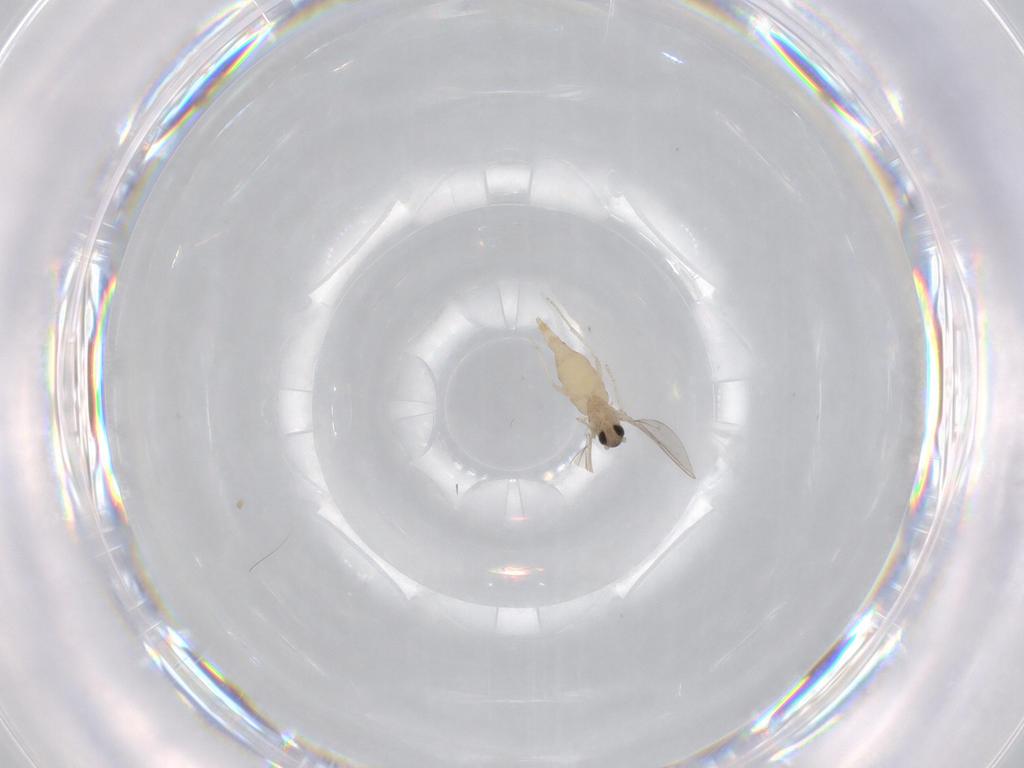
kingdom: Animalia
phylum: Arthropoda
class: Insecta
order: Diptera
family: Cecidomyiidae
